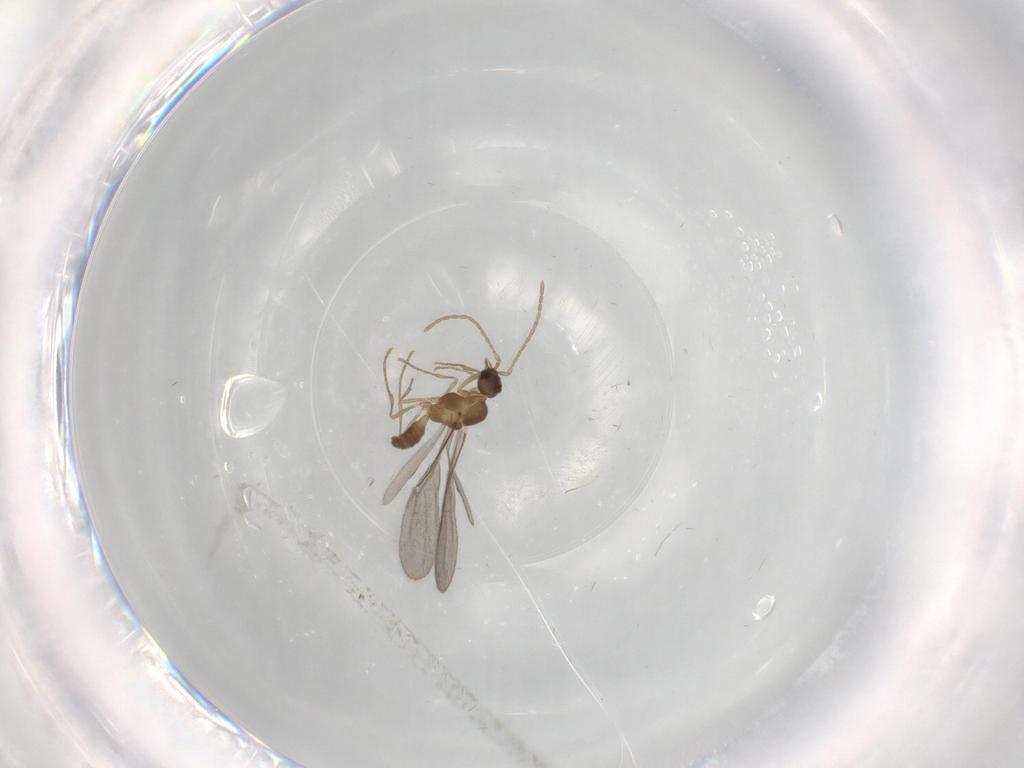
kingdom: Animalia
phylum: Arthropoda
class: Insecta
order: Hymenoptera
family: Formicidae
